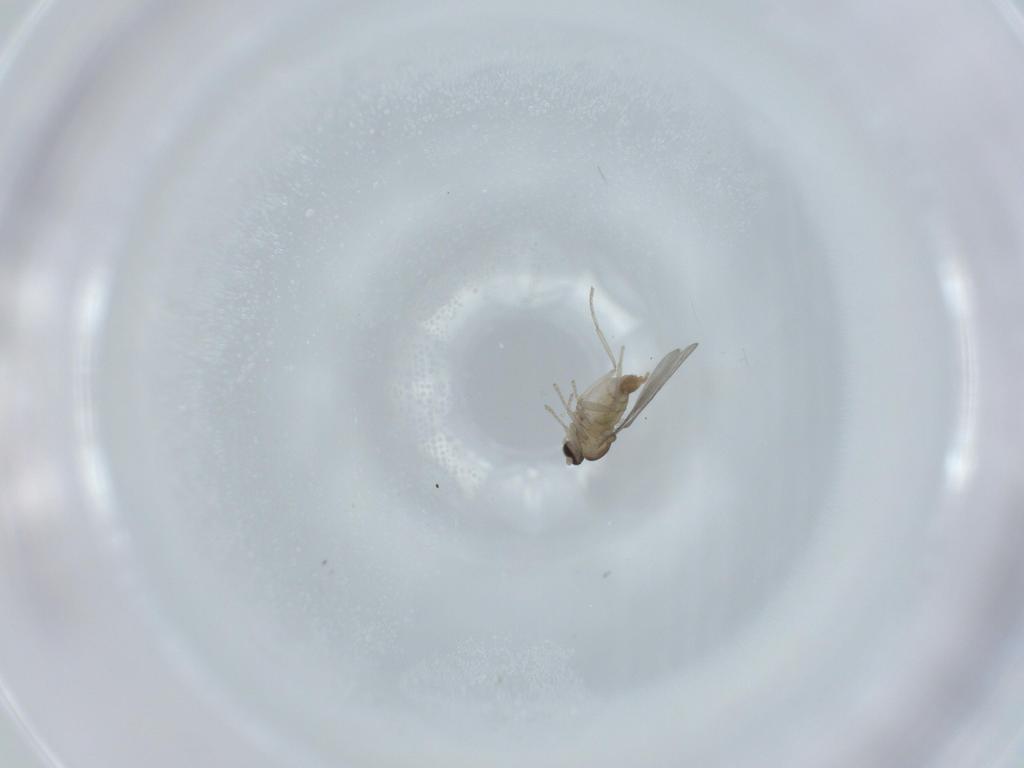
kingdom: Animalia
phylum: Arthropoda
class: Insecta
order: Diptera
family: Cecidomyiidae
